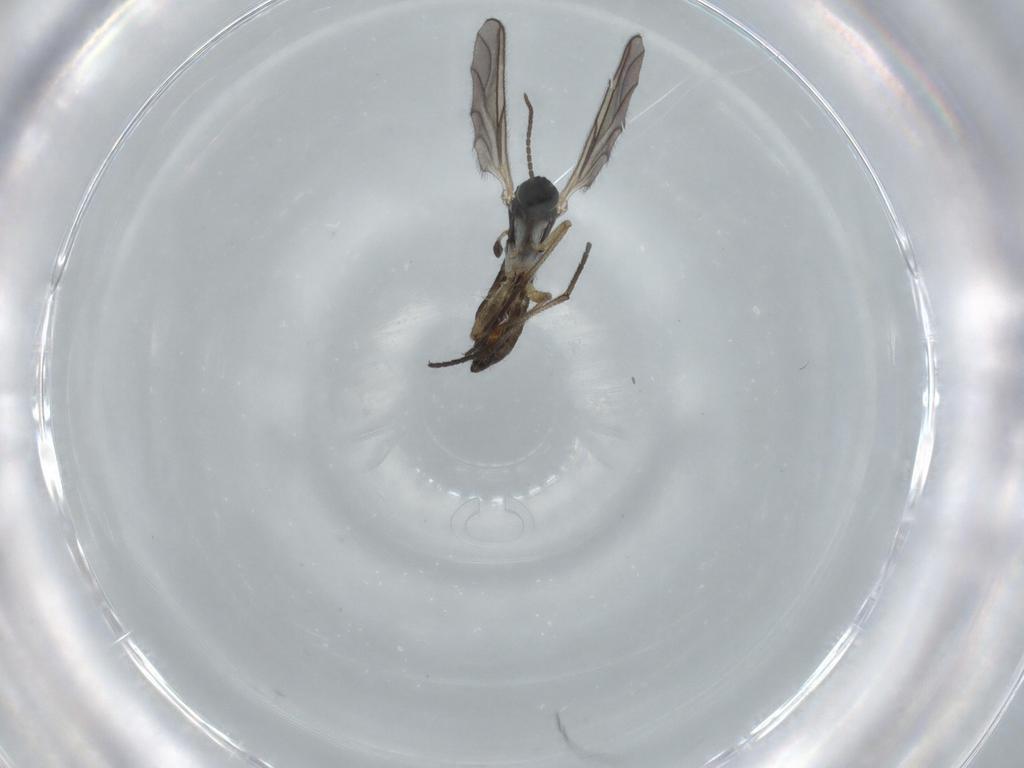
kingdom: Animalia
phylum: Arthropoda
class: Insecta
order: Diptera
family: Sciaridae
